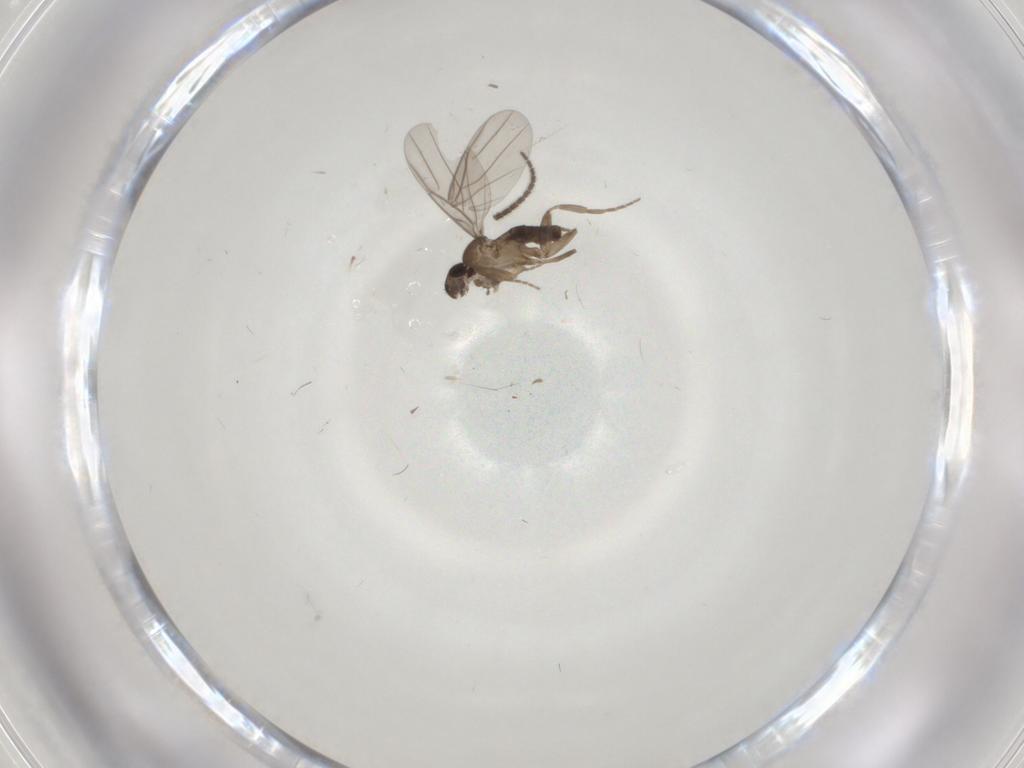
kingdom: Animalia
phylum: Arthropoda
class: Insecta
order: Diptera
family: Sciaridae
